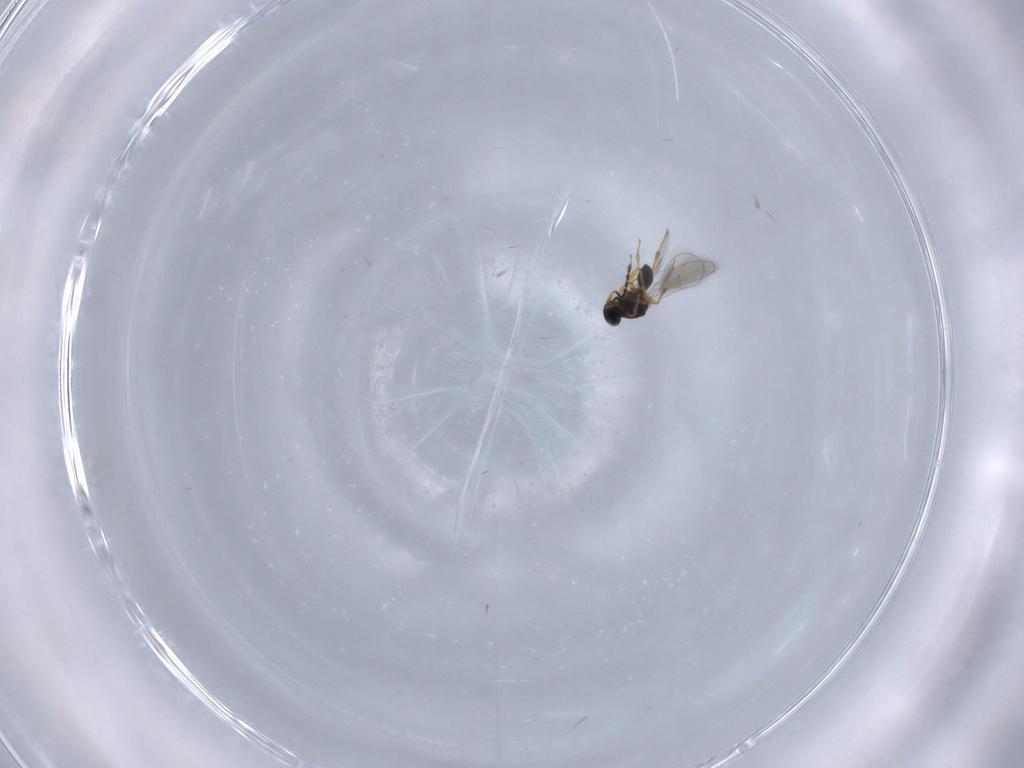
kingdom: Animalia
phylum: Arthropoda
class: Insecta
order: Hymenoptera
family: Platygastridae
